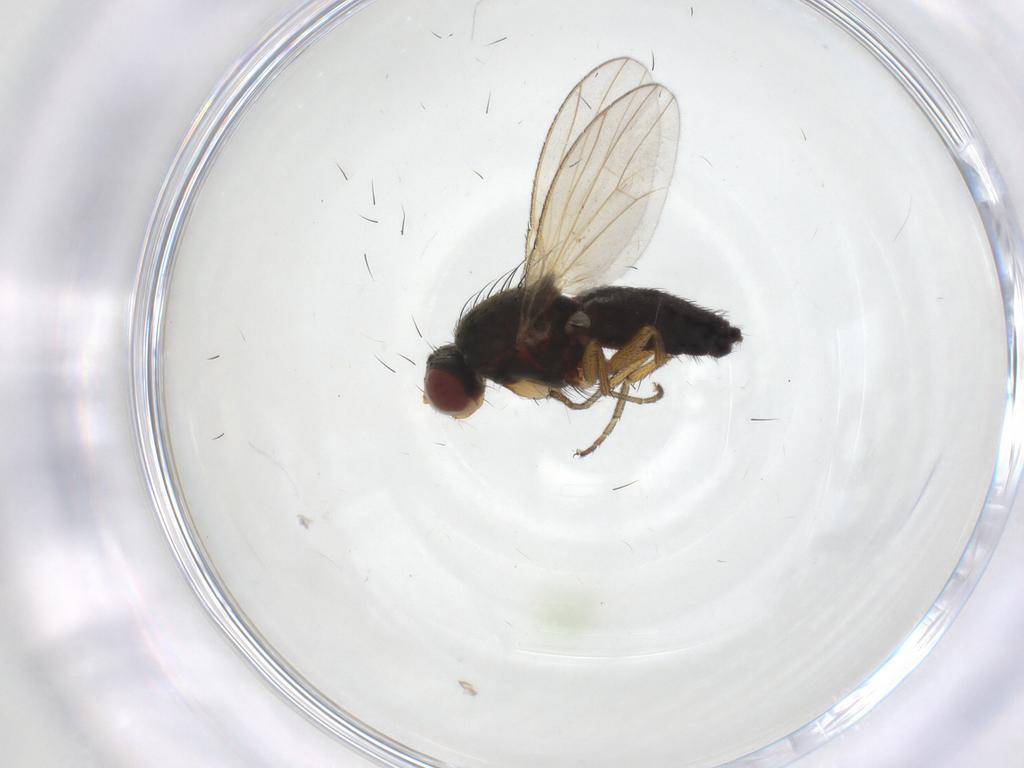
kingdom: Animalia
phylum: Arthropoda
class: Insecta
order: Diptera
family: Heleomyzidae
